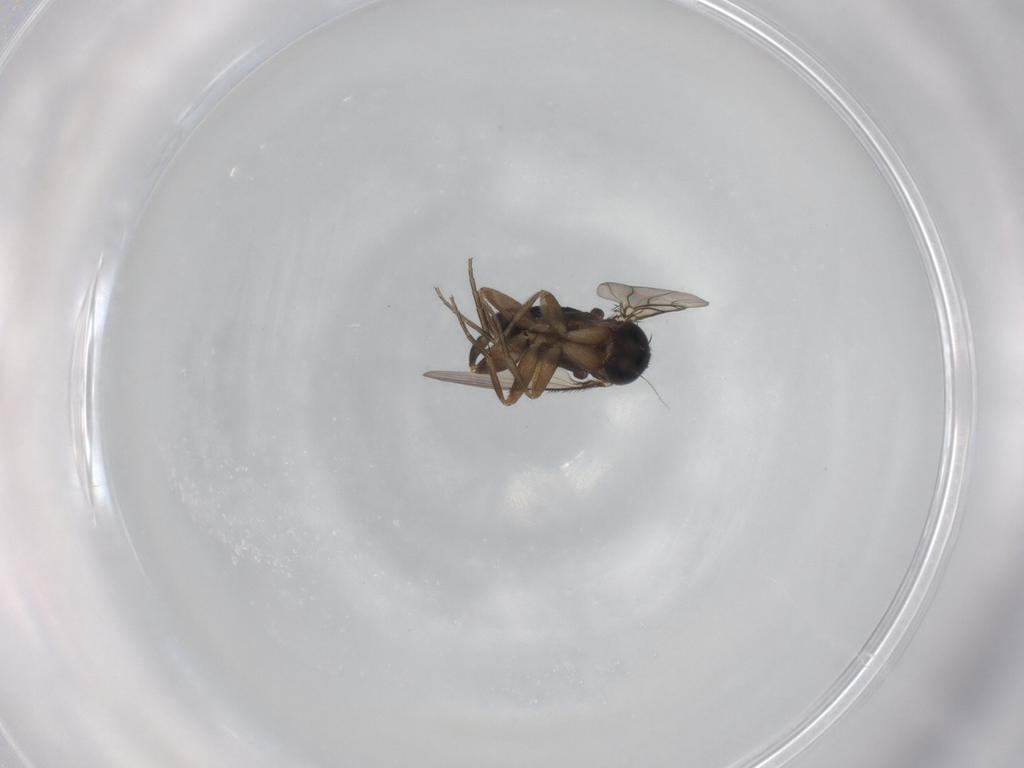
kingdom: Animalia
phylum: Arthropoda
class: Insecta
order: Diptera
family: Phoridae
